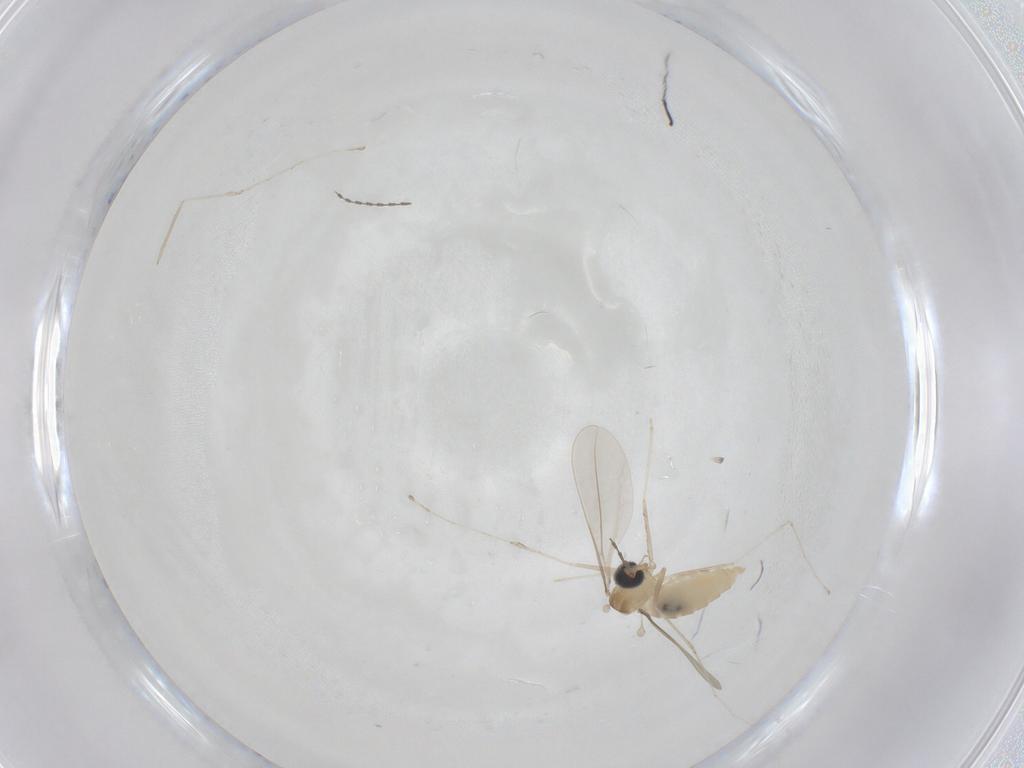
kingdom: Animalia
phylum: Arthropoda
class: Insecta
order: Diptera
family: Cecidomyiidae
